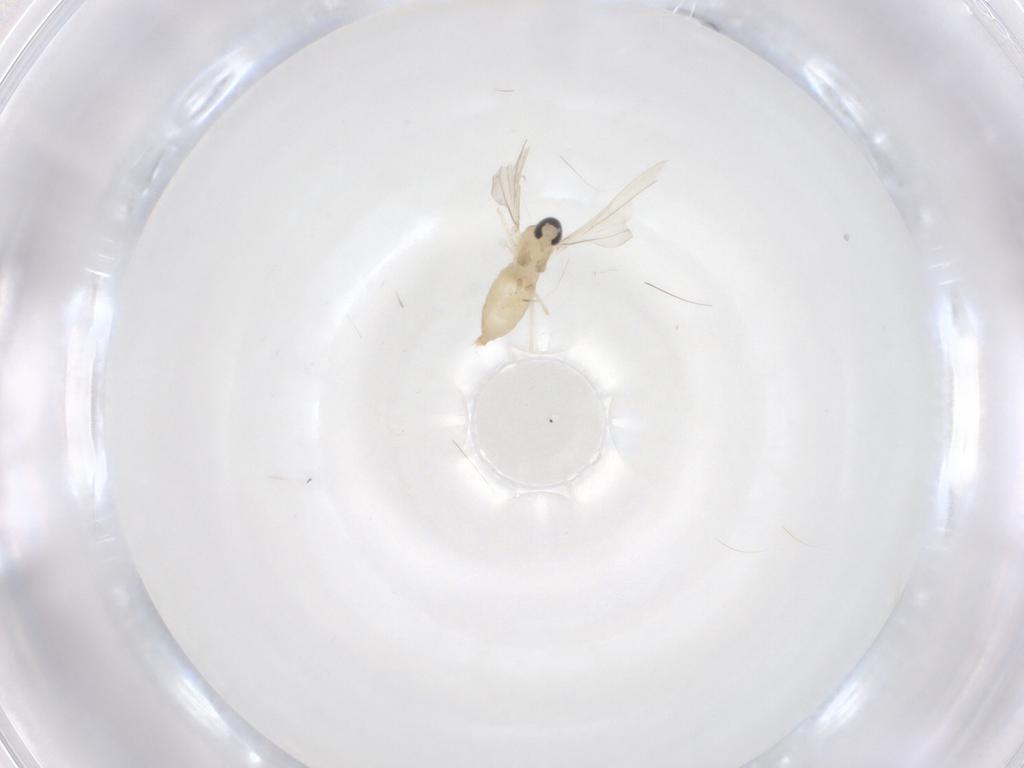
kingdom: Animalia
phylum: Arthropoda
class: Insecta
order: Diptera
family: Cecidomyiidae
